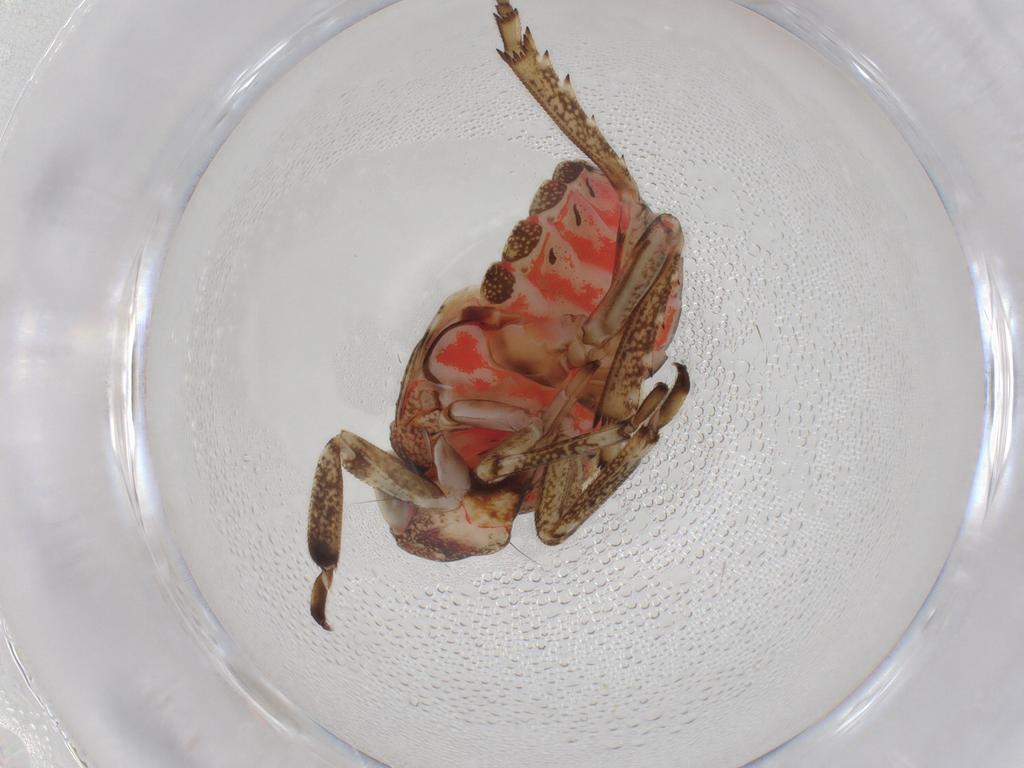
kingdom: Animalia
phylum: Arthropoda
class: Insecta
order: Hemiptera
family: Issidae
